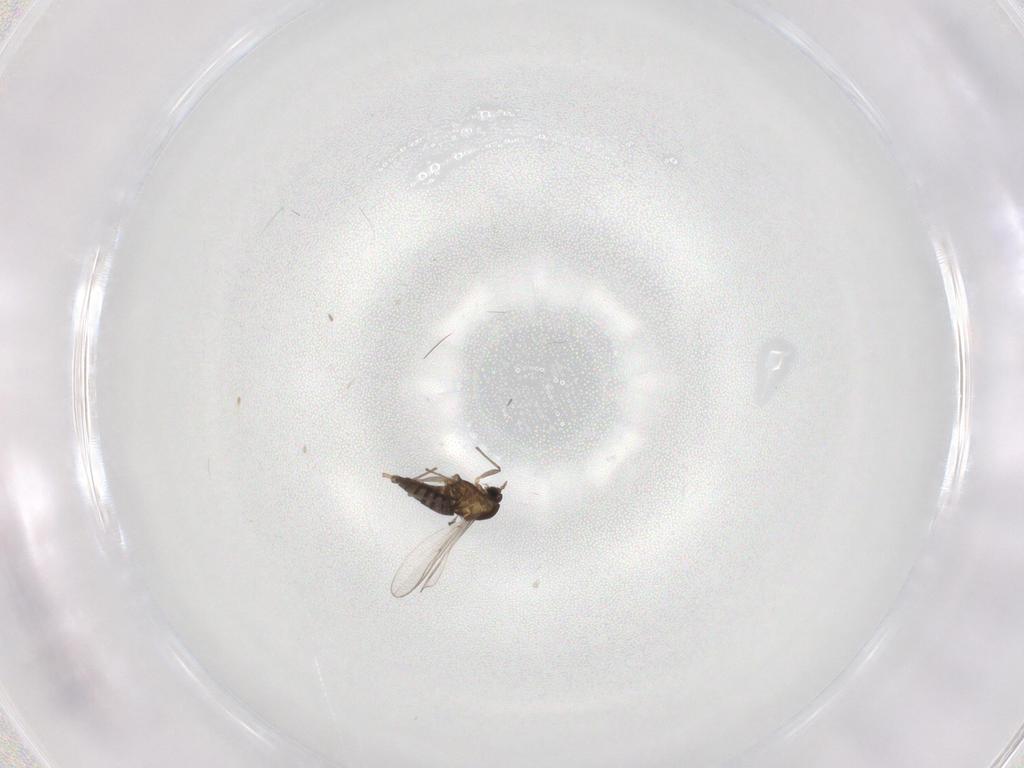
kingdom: Animalia
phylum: Arthropoda
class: Insecta
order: Diptera
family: Chironomidae
